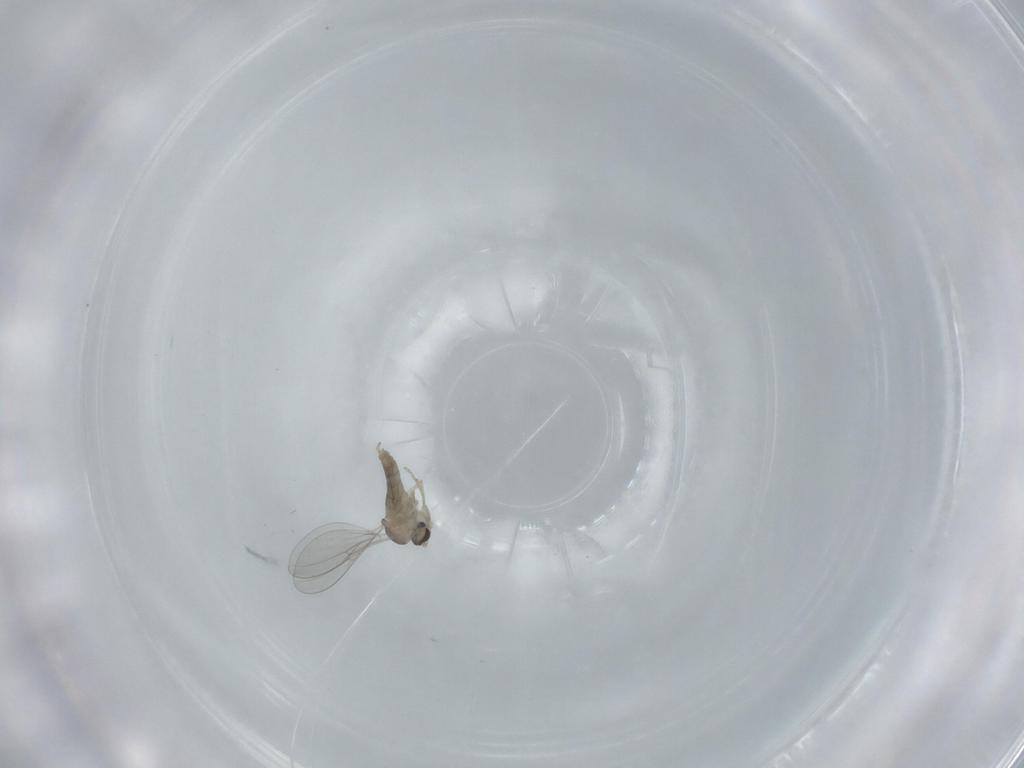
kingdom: Animalia
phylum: Arthropoda
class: Insecta
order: Diptera
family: Cecidomyiidae
